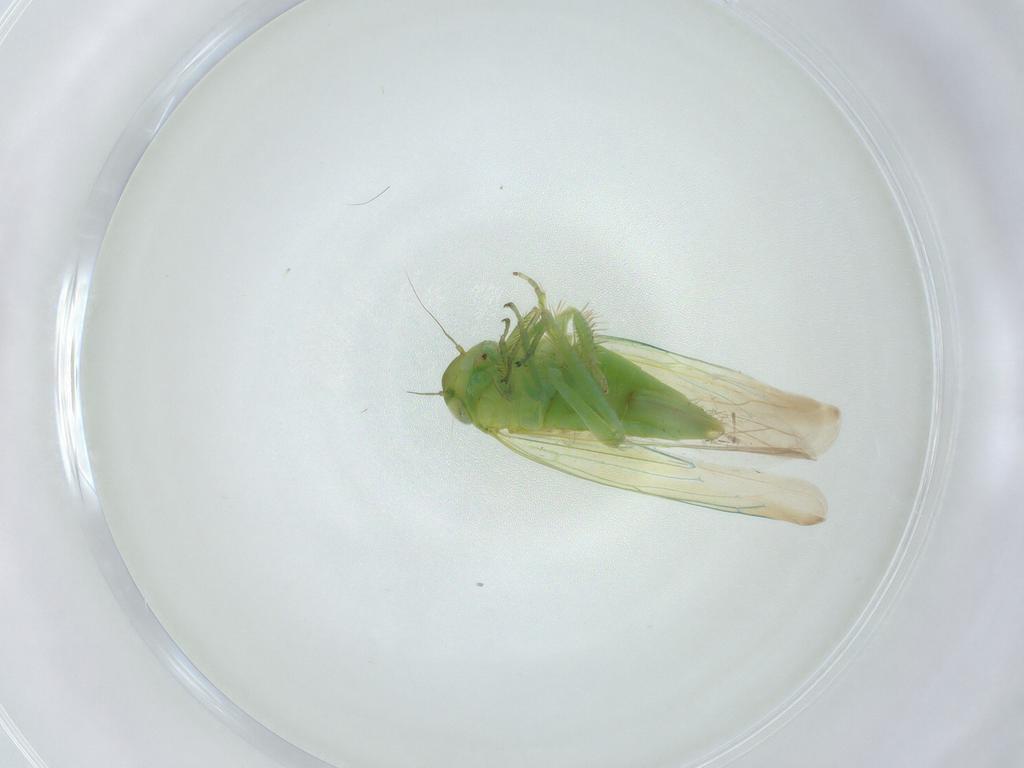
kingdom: Animalia
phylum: Arthropoda
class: Insecta
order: Hemiptera
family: Cicadellidae
